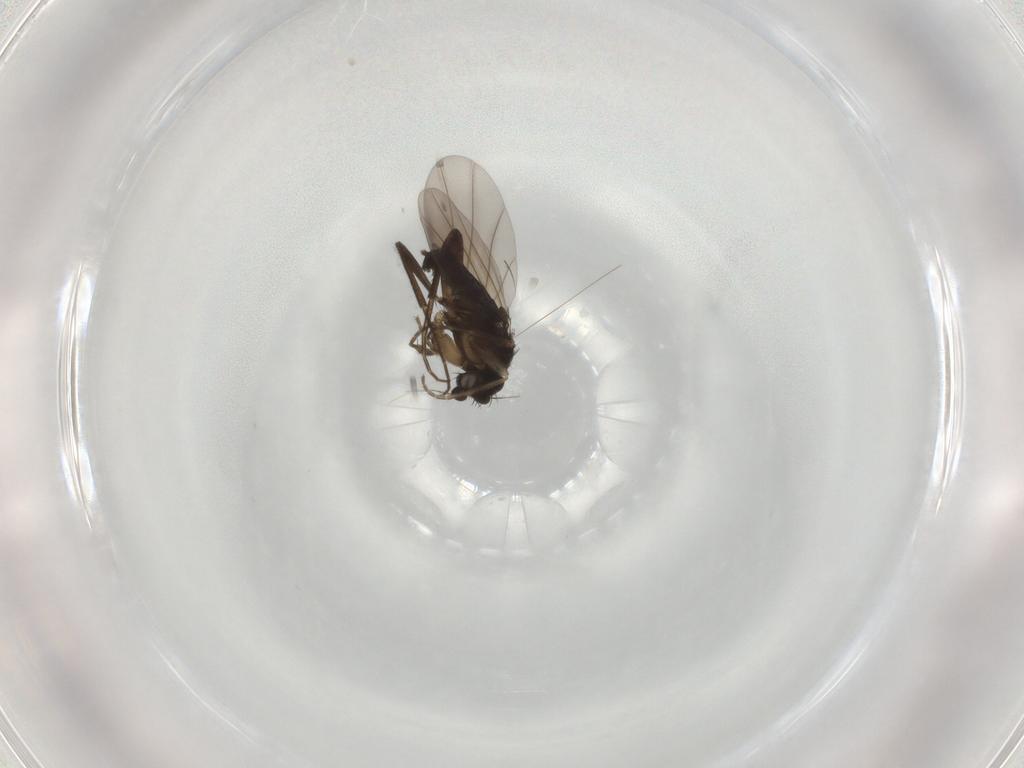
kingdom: Animalia
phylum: Arthropoda
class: Insecta
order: Diptera
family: Phoridae
